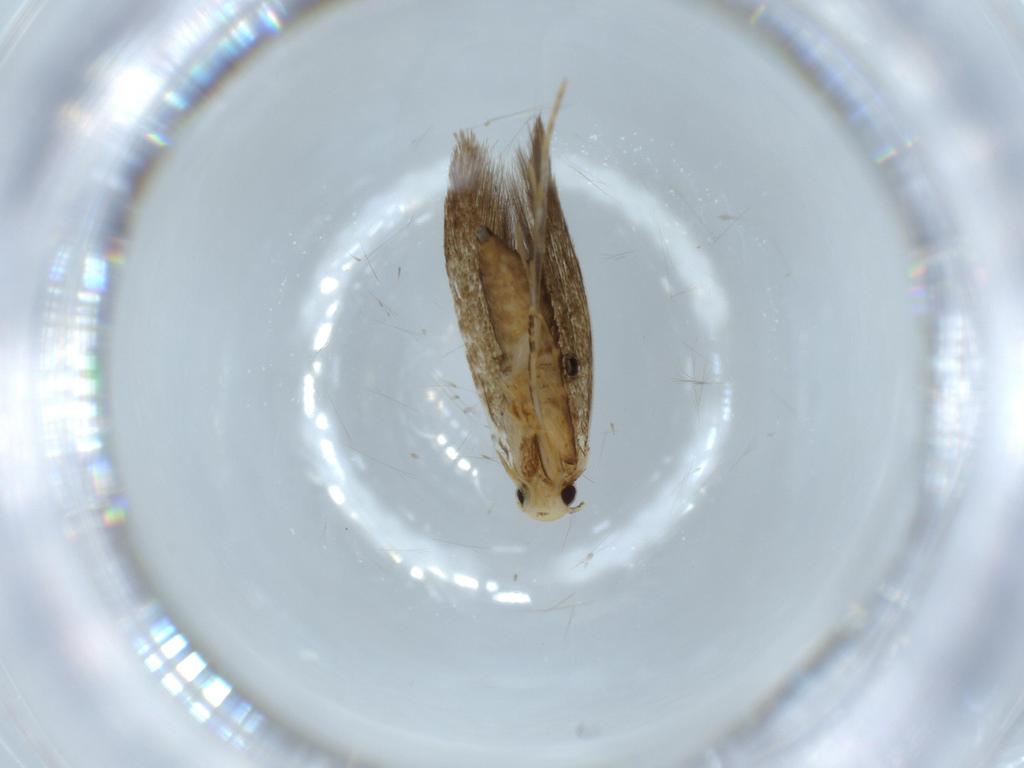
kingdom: Animalia
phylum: Arthropoda
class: Insecta
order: Lepidoptera
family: Tineidae
